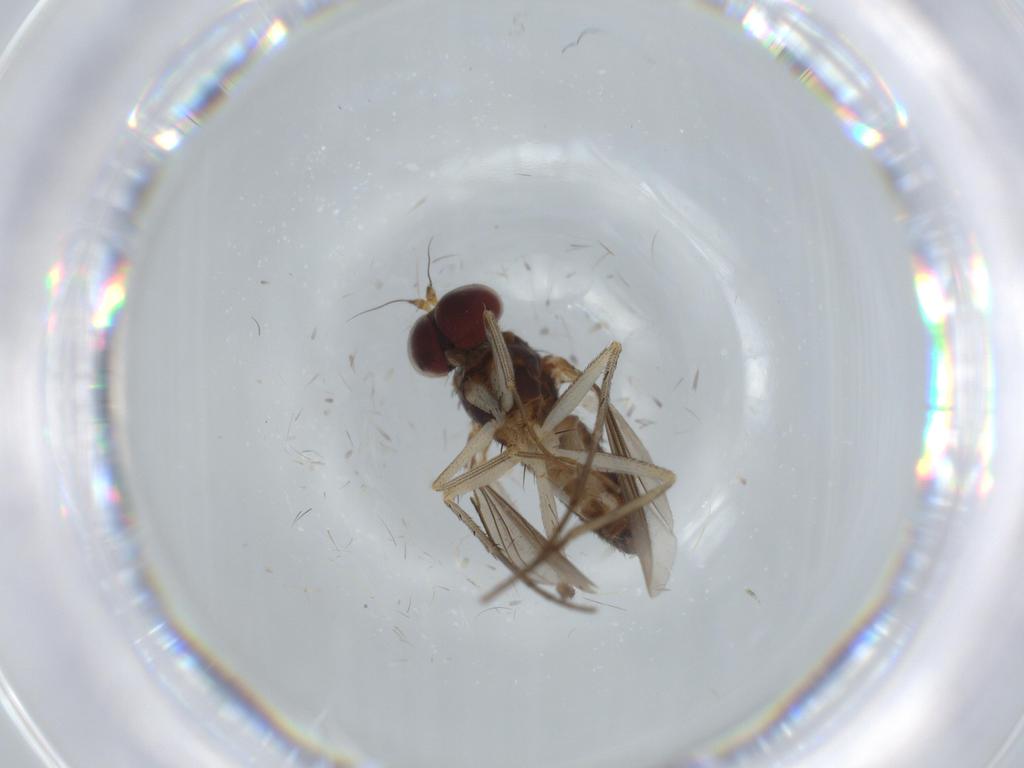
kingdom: Animalia
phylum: Arthropoda
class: Insecta
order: Diptera
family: Dolichopodidae
